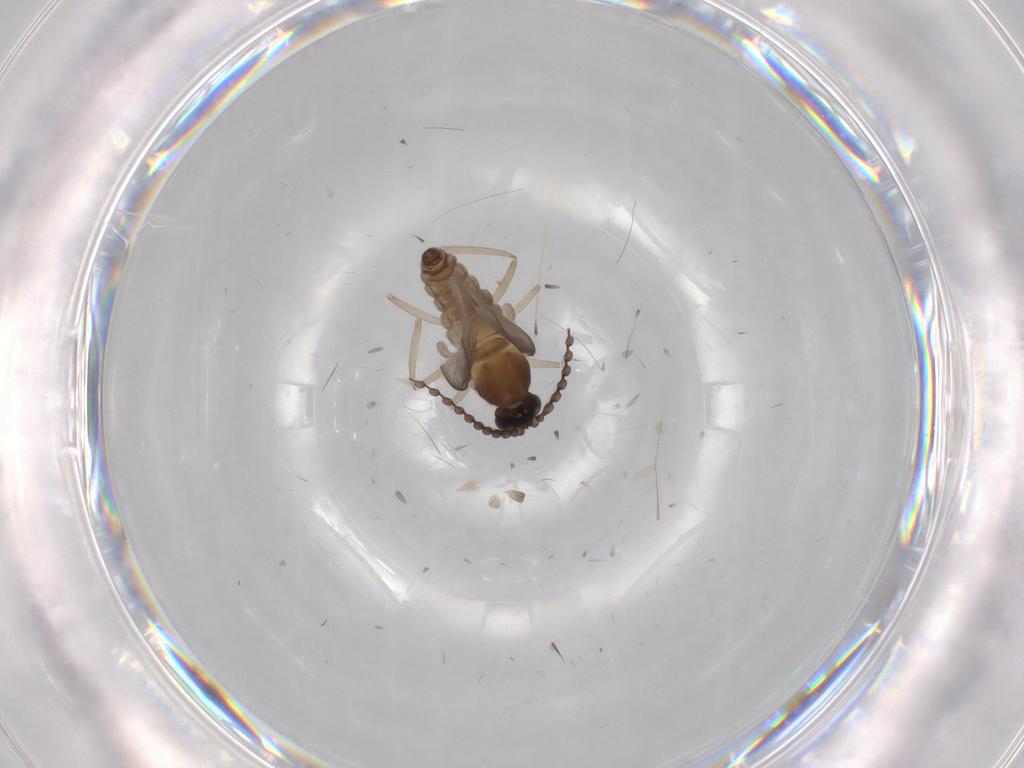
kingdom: Animalia
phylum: Arthropoda
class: Insecta
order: Diptera
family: Cecidomyiidae
